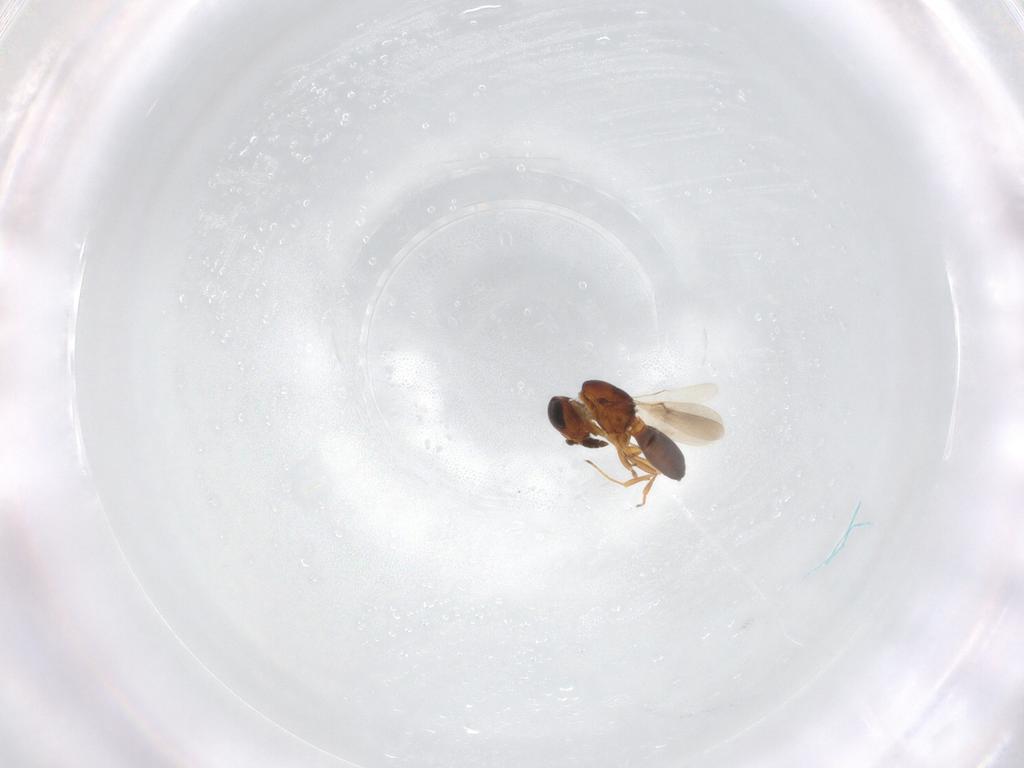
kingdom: Animalia
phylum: Arthropoda
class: Insecta
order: Hymenoptera
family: Scelionidae
